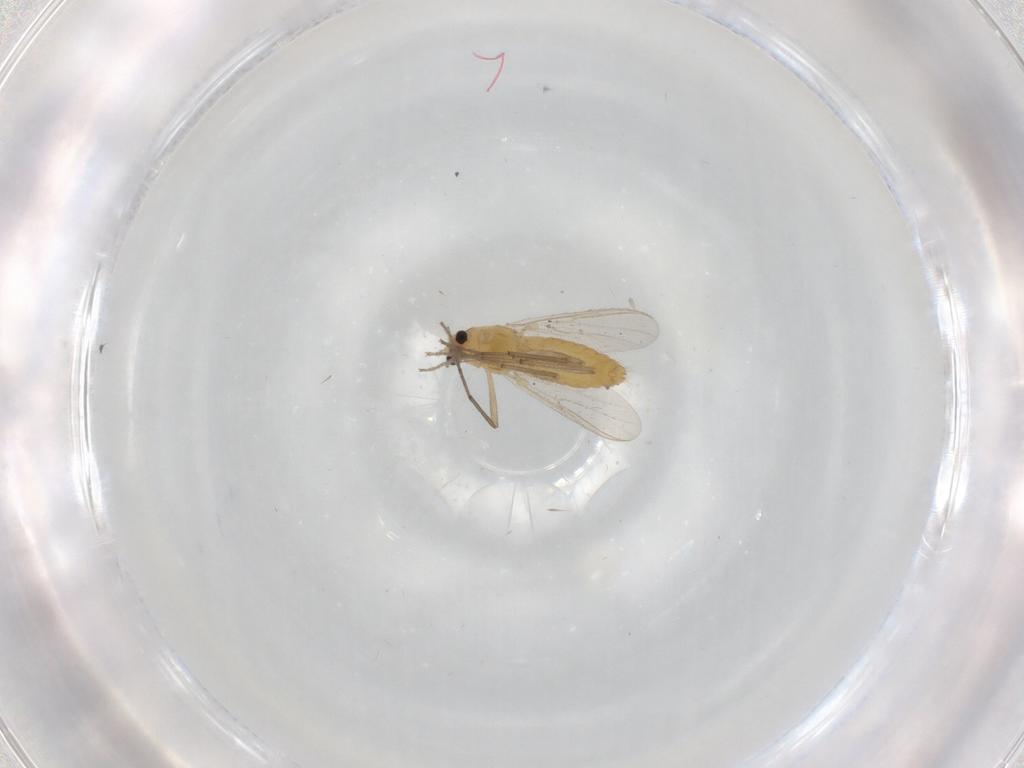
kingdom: Animalia
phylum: Arthropoda
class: Insecta
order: Diptera
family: Chironomidae
